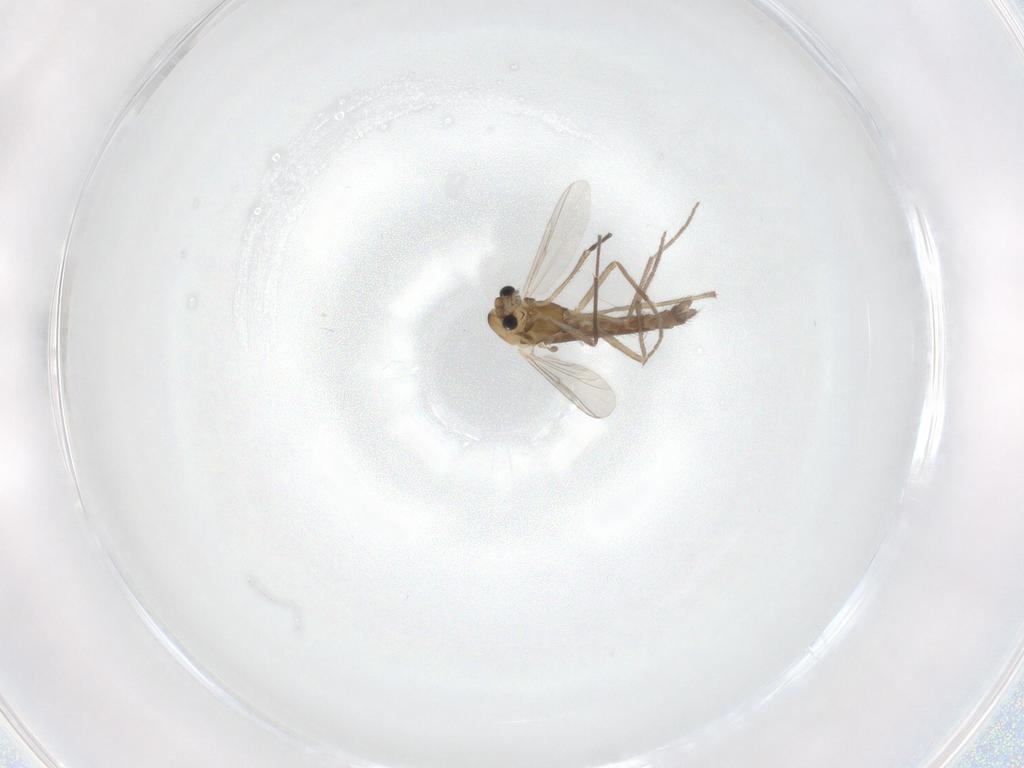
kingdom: Animalia
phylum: Arthropoda
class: Insecta
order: Diptera
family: Chironomidae
